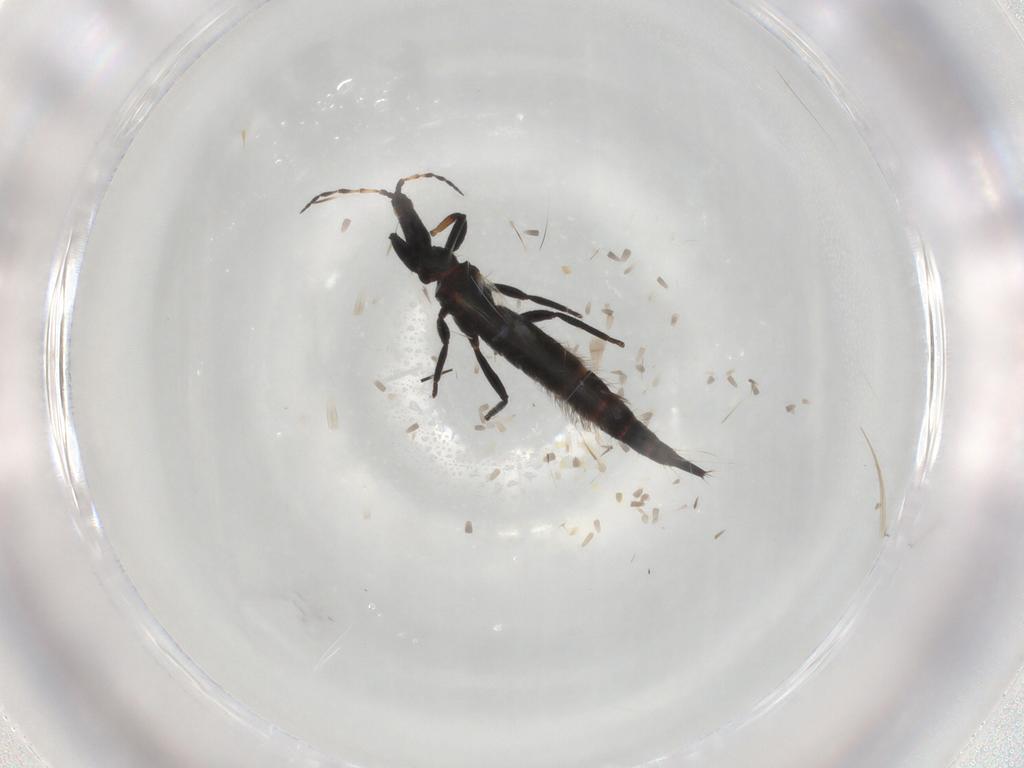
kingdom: Animalia
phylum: Arthropoda
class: Insecta
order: Thysanoptera
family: Phlaeothripidae
